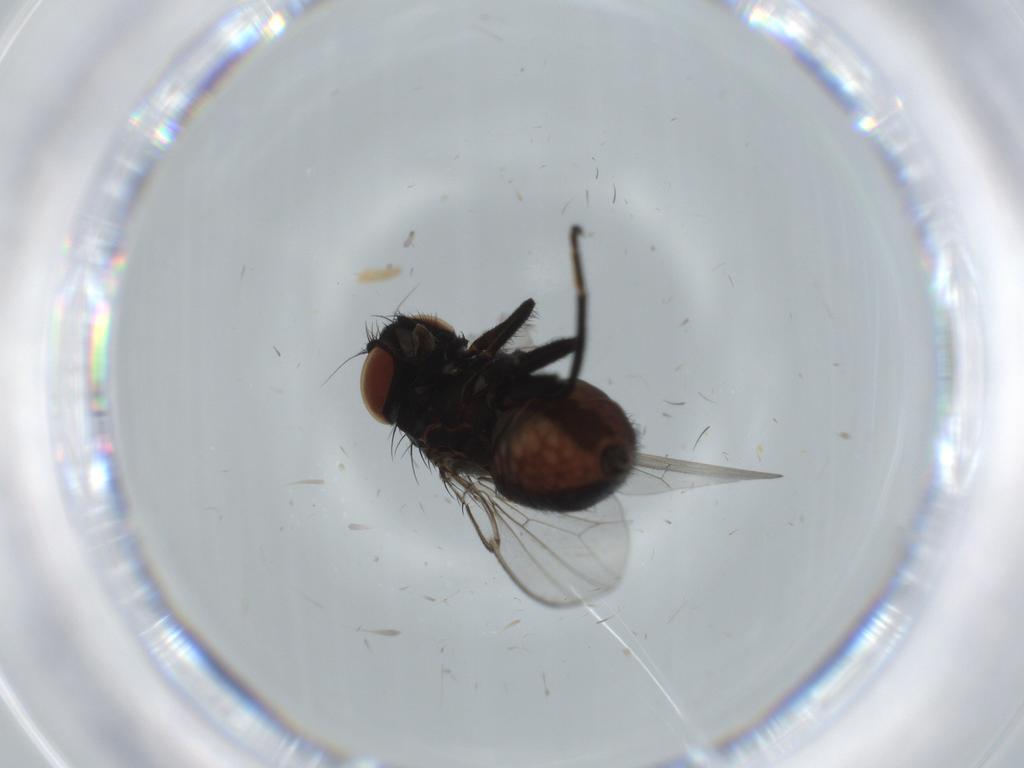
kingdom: Animalia
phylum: Arthropoda
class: Insecta
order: Diptera
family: Milichiidae
